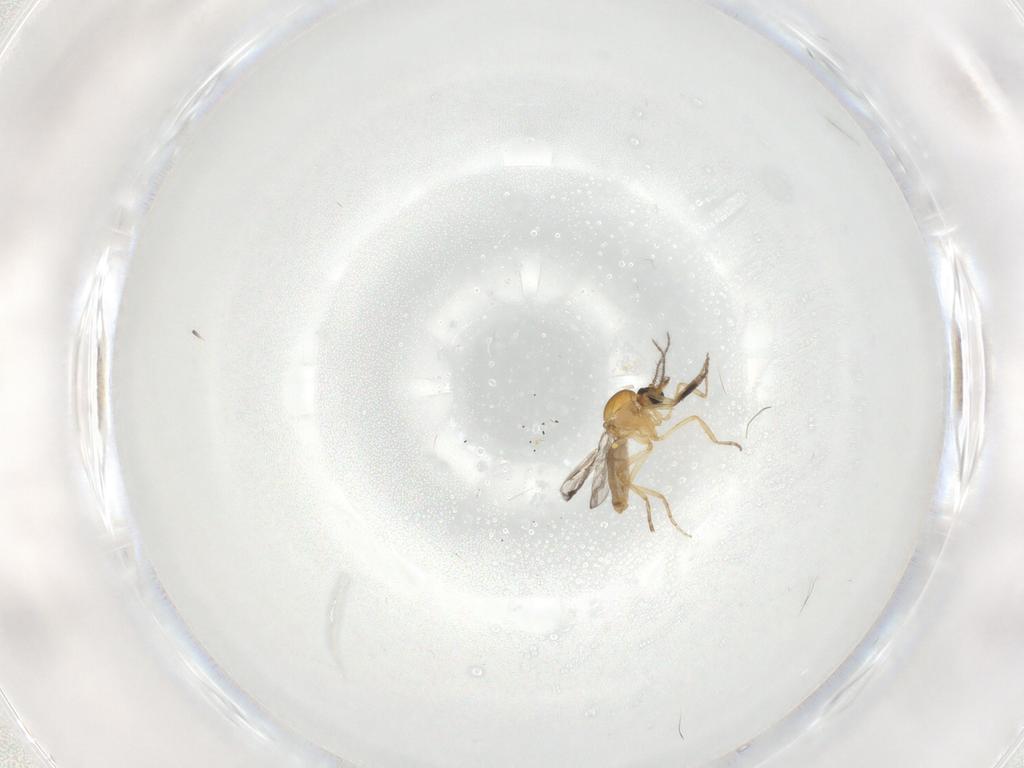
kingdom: Animalia
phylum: Arthropoda
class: Insecta
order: Diptera
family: Ceratopogonidae
